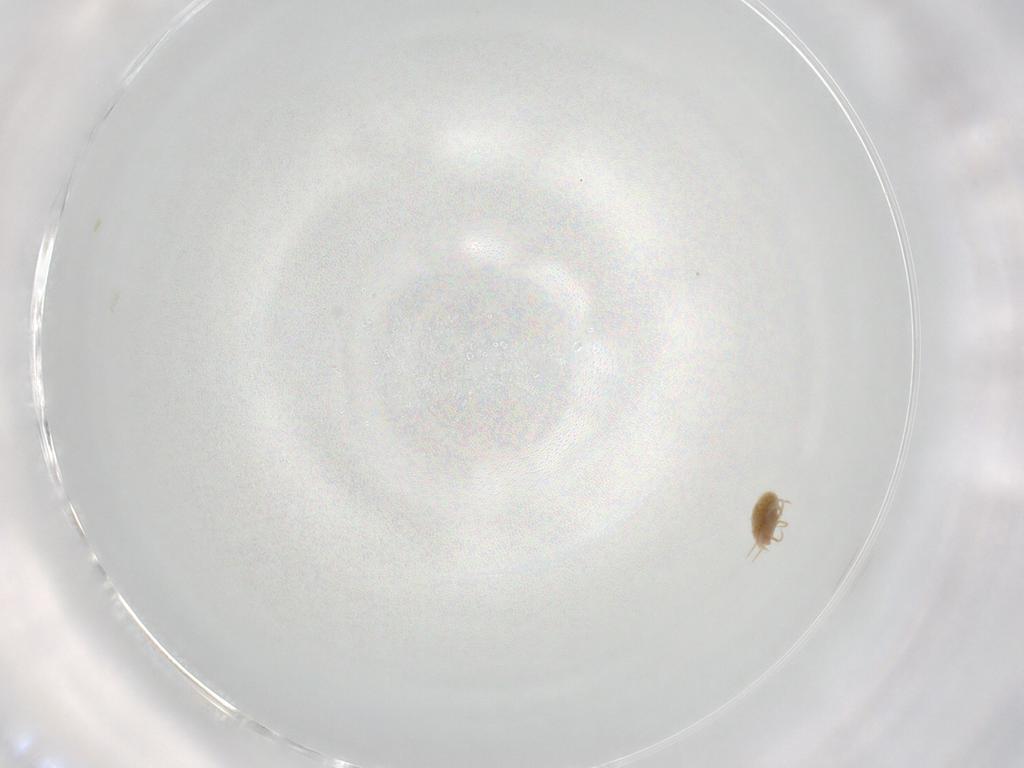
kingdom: Animalia
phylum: Arthropoda
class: Arachnida
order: Trombidiformes
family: Tetranychidae
